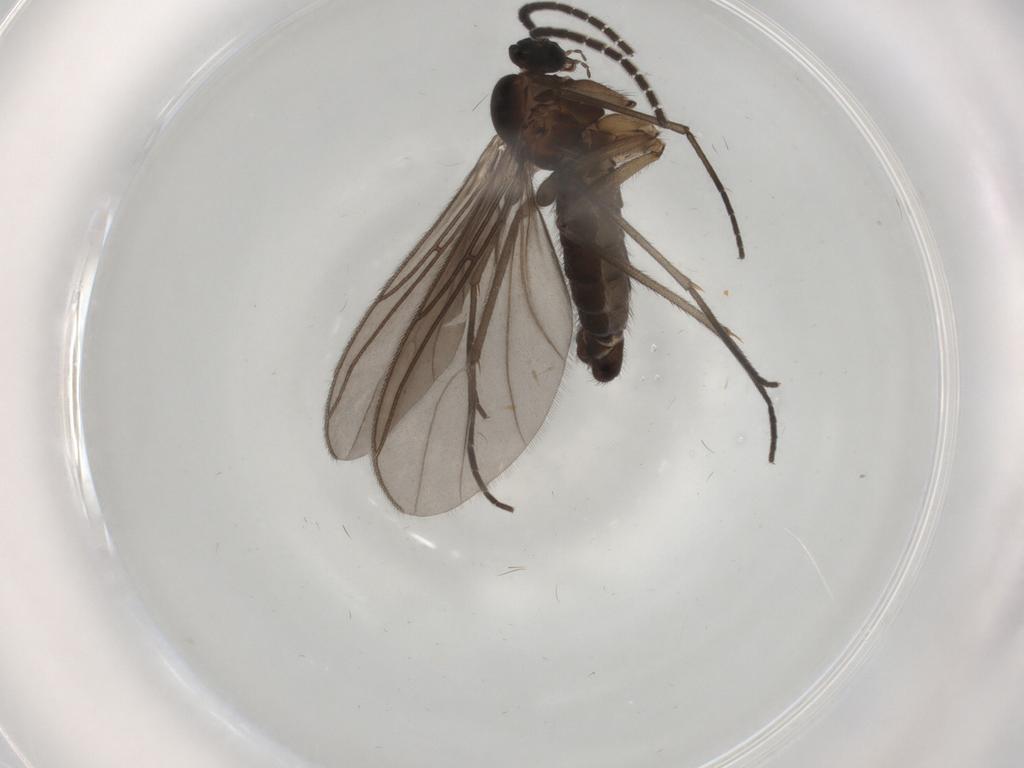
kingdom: Animalia
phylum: Arthropoda
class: Insecta
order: Diptera
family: Sciaridae
